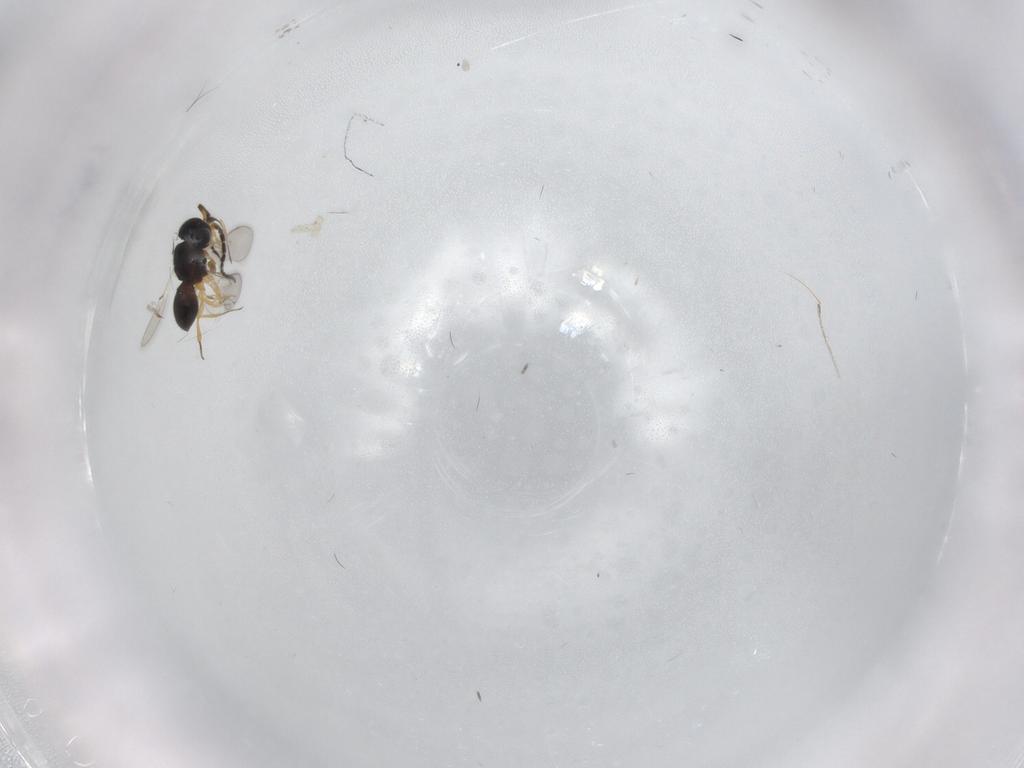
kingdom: Animalia
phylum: Arthropoda
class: Insecta
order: Hymenoptera
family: Scelionidae
